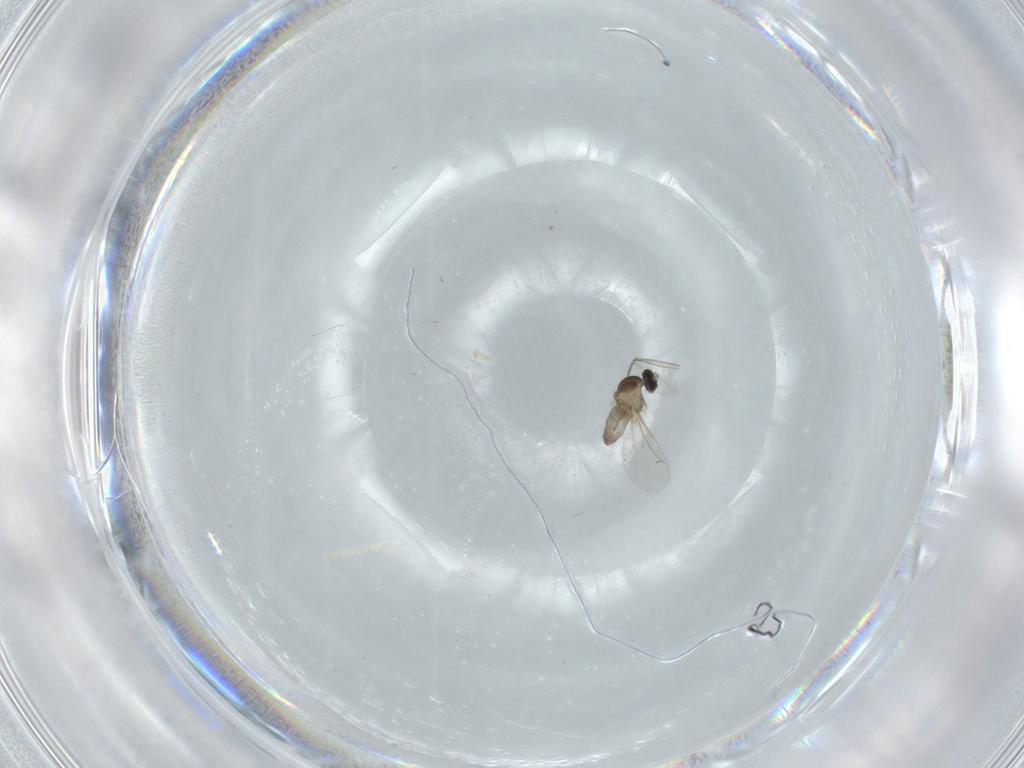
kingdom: Animalia
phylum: Arthropoda
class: Insecta
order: Diptera
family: Cecidomyiidae
